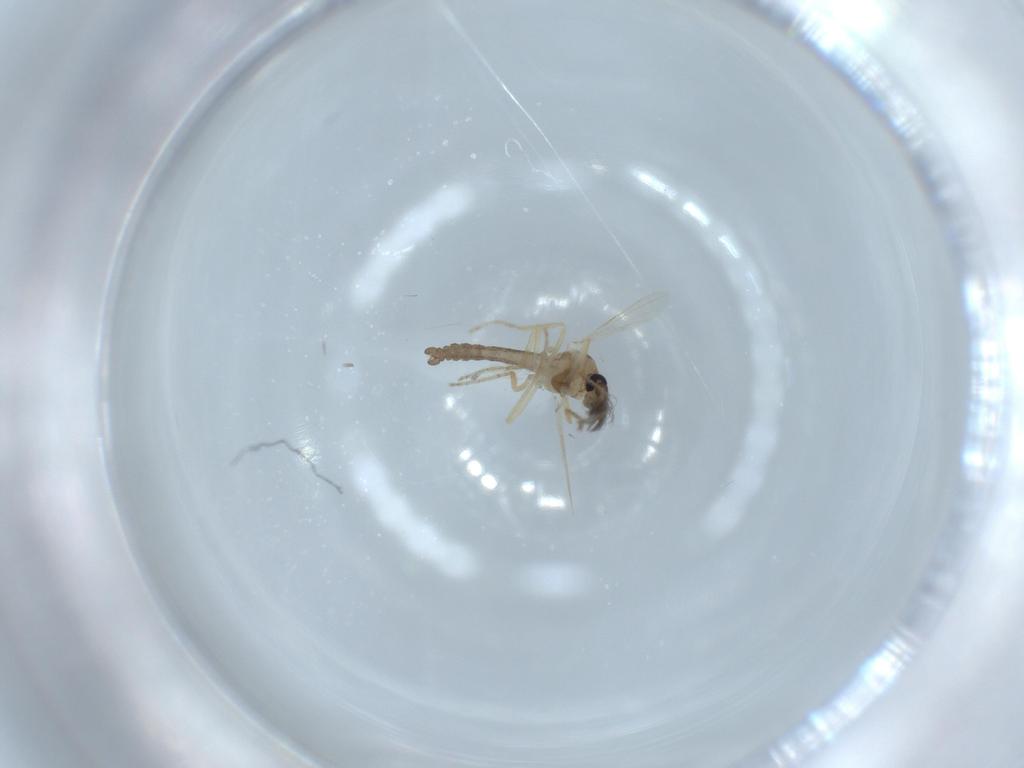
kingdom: Animalia
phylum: Arthropoda
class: Insecta
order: Diptera
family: Ceratopogonidae
